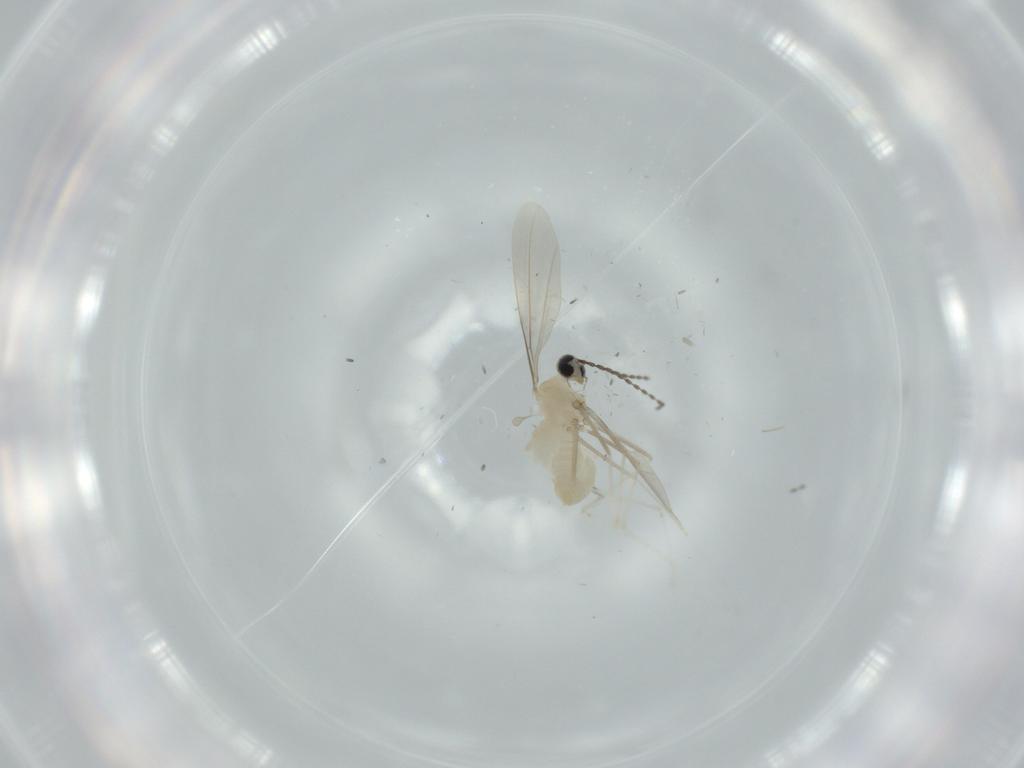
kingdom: Animalia
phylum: Arthropoda
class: Insecta
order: Diptera
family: Cecidomyiidae
